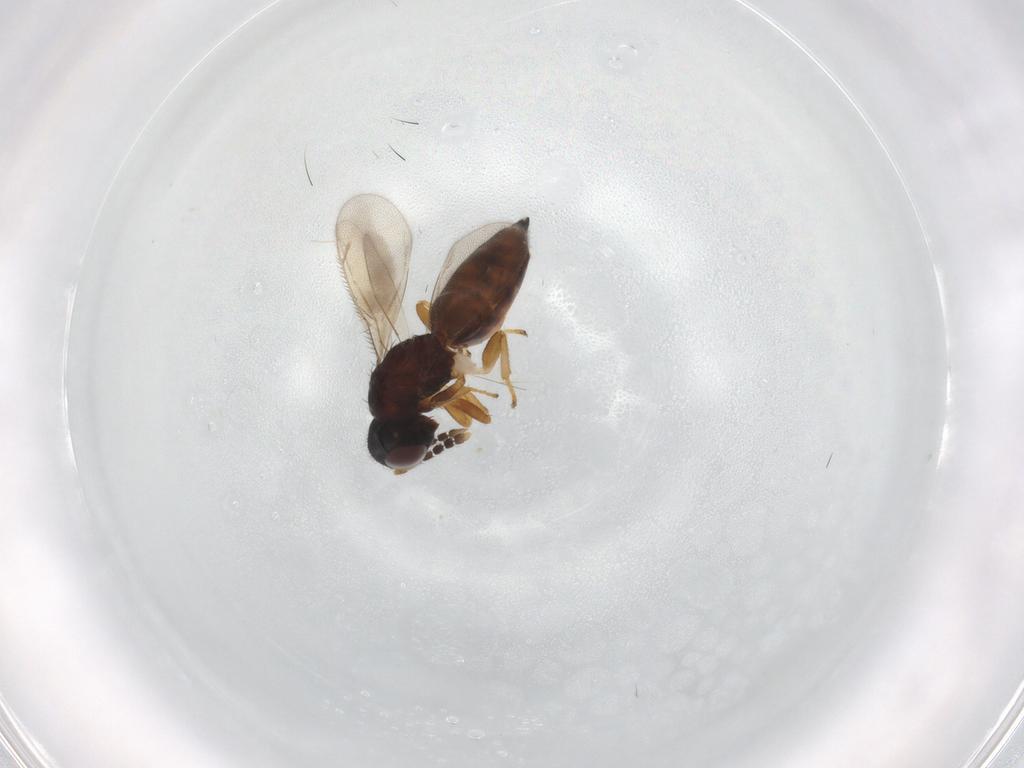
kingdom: Animalia
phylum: Arthropoda
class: Insecta
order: Hymenoptera
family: Eulophidae
